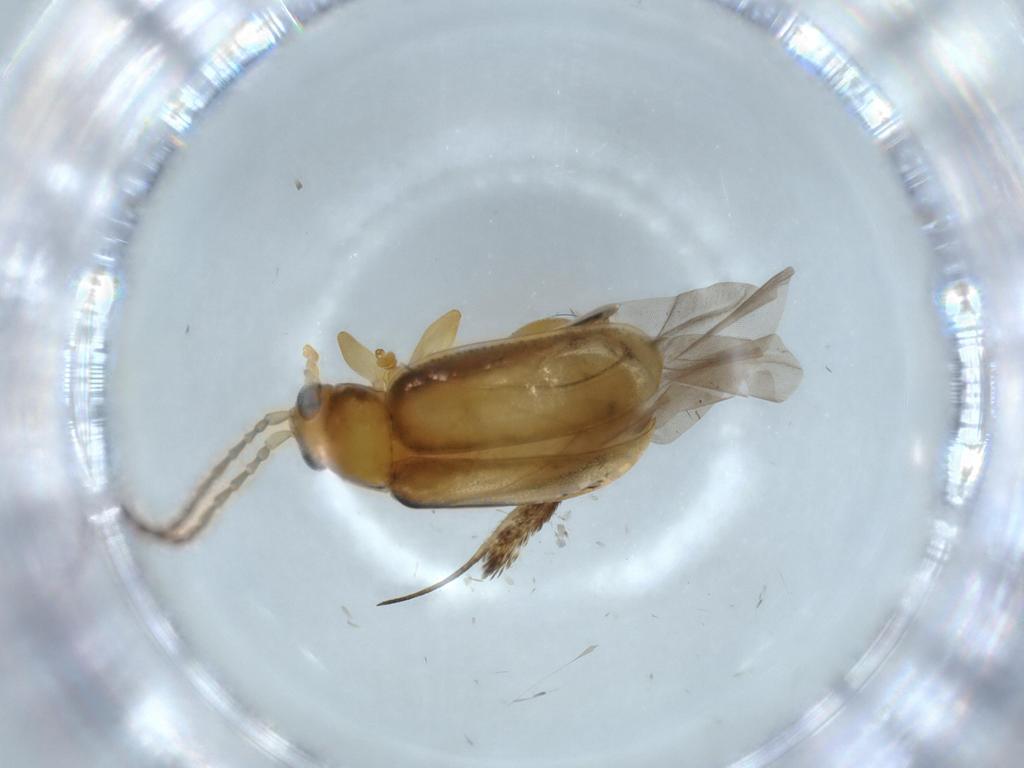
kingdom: Animalia
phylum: Arthropoda
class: Insecta
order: Coleoptera
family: Chrysomelidae
